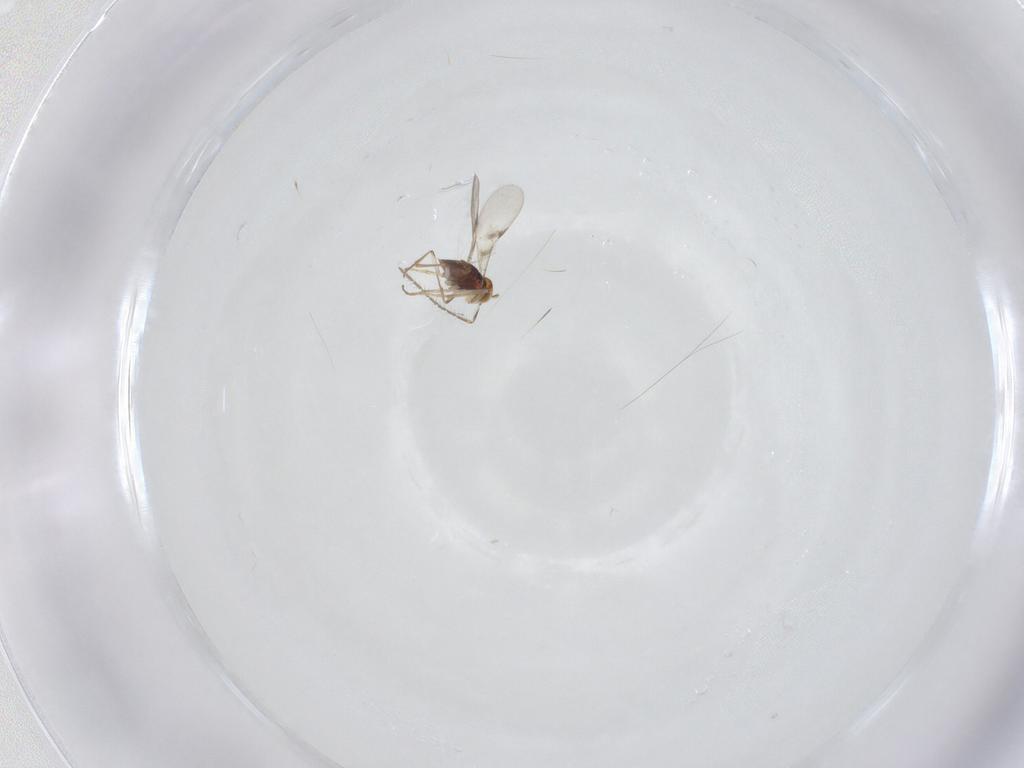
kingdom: Animalia
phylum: Arthropoda
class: Insecta
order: Hymenoptera
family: Encyrtidae
